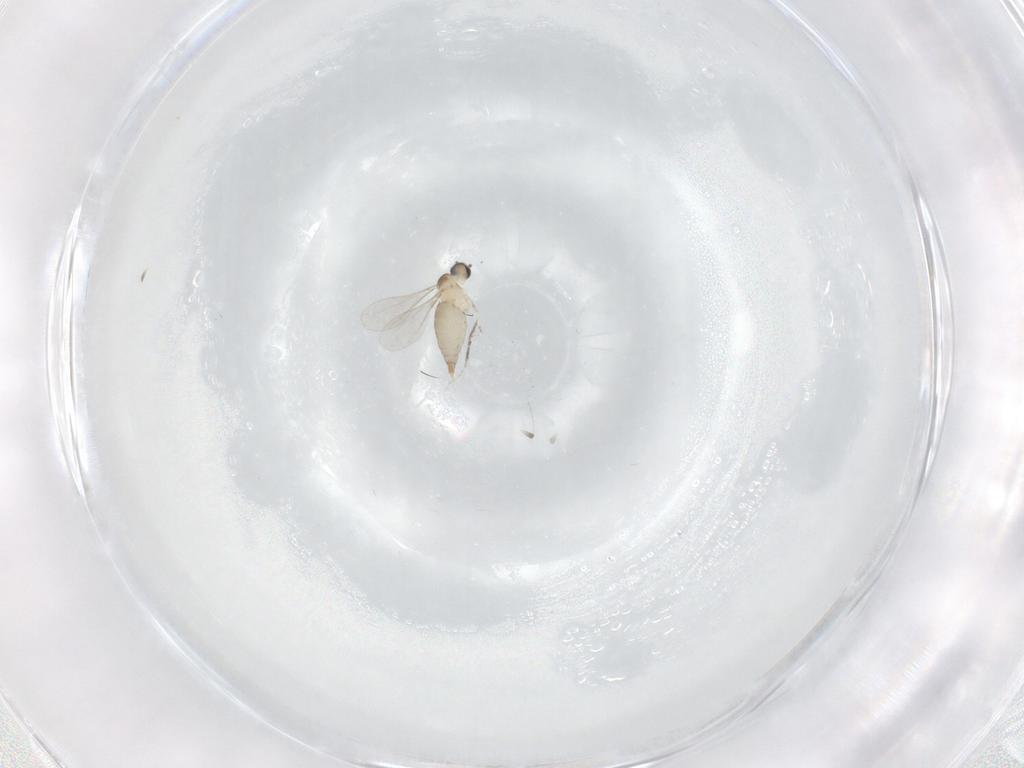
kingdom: Animalia
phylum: Arthropoda
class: Insecta
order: Diptera
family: Cecidomyiidae
